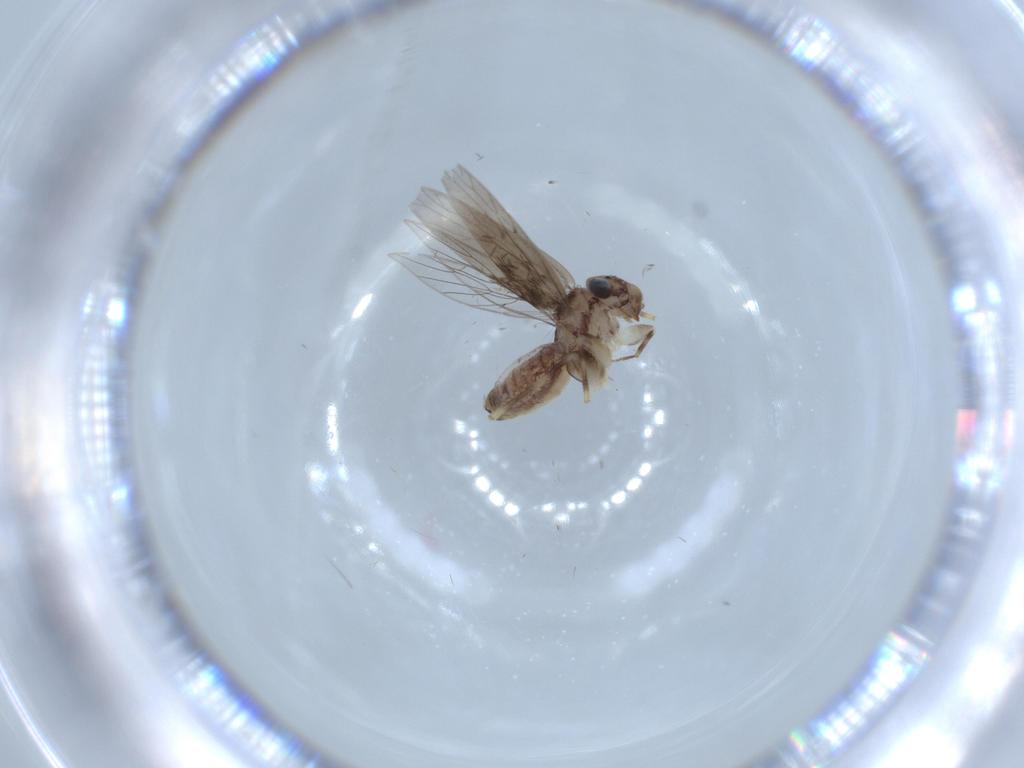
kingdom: Animalia
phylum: Arthropoda
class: Insecta
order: Psocodea
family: Lepidopsocidae
